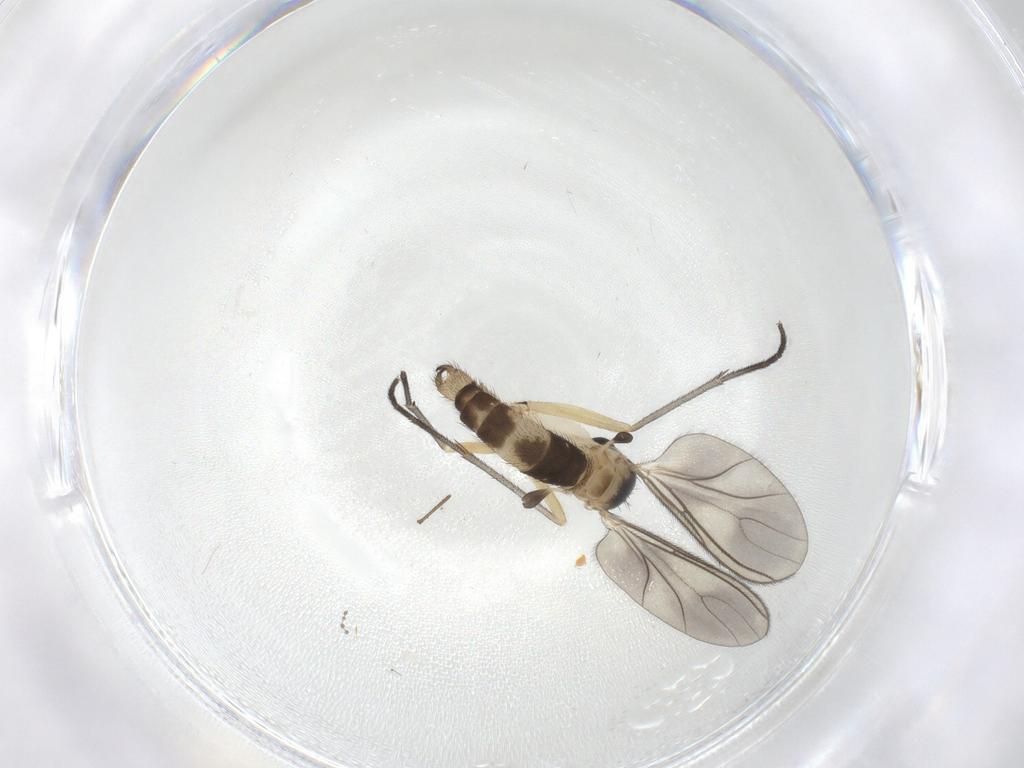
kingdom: Animalia
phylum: Arthropoda
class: Insecta
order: Diptera
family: Sciaridae
